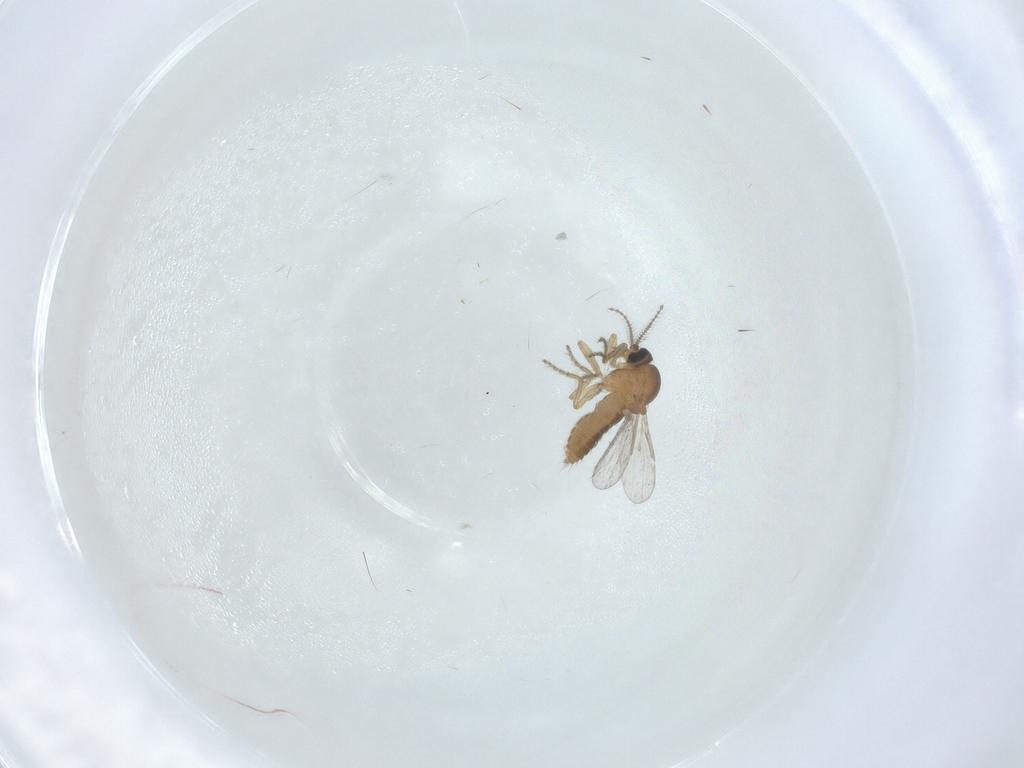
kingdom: Animalia
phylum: Arthropoda
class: Insecta
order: Diptera
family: Ceratopogonidae
